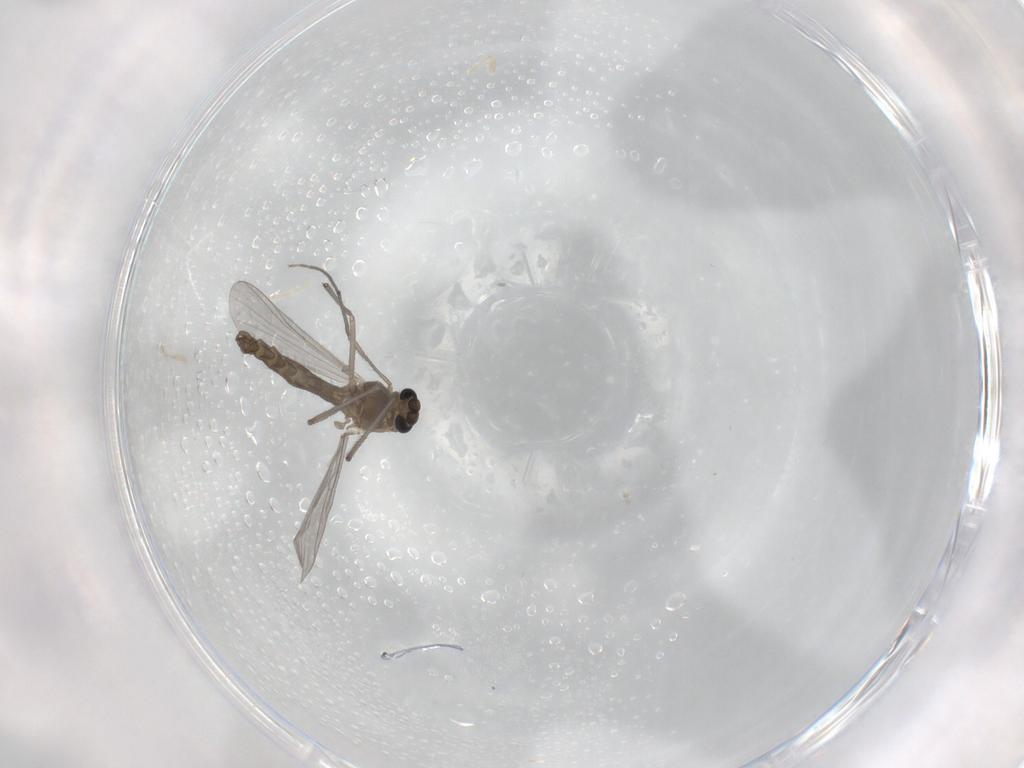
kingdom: Animalia
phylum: Arthropoda
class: Insecta
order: Diptera
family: Chironomidae
